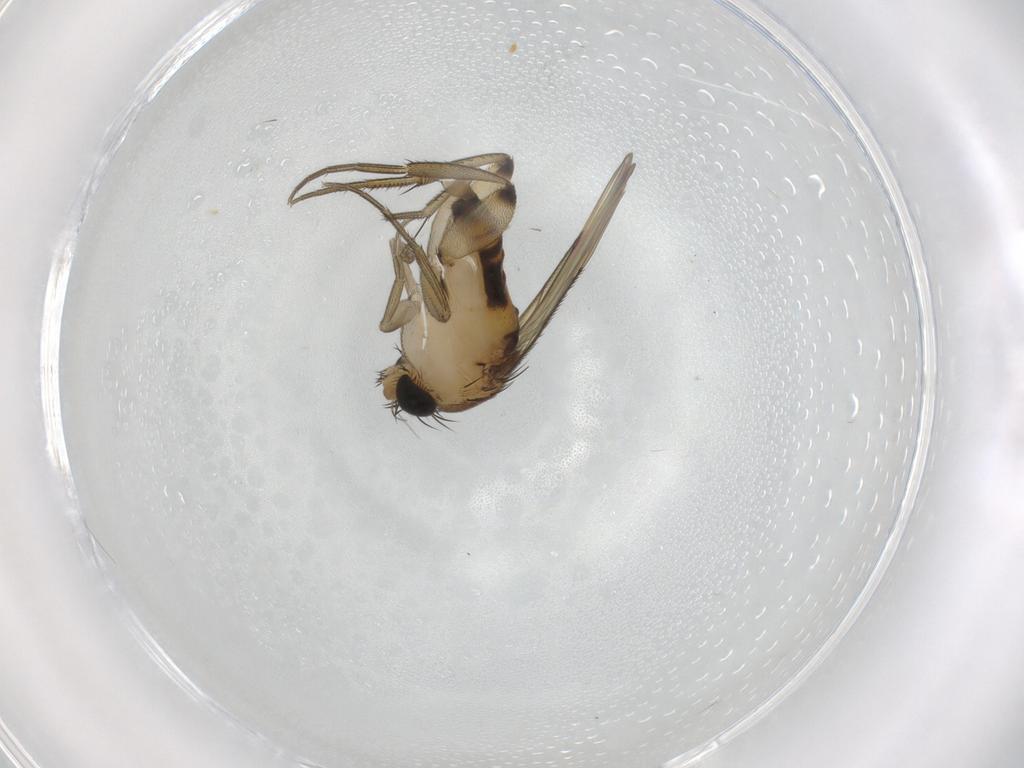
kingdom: Animalia
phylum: Arthropoda
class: Insecta
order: Diptera
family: Phoridae
